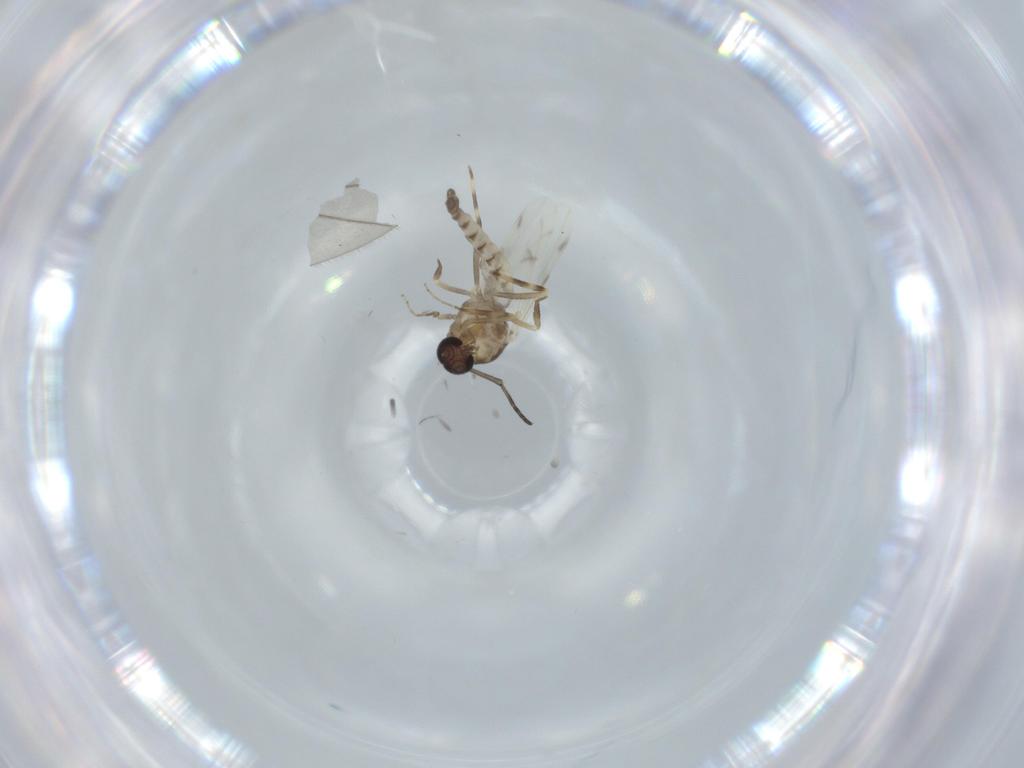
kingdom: Animalia
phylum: Arthropoda
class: Insecta
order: Diptera
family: Ceratopogonidae
